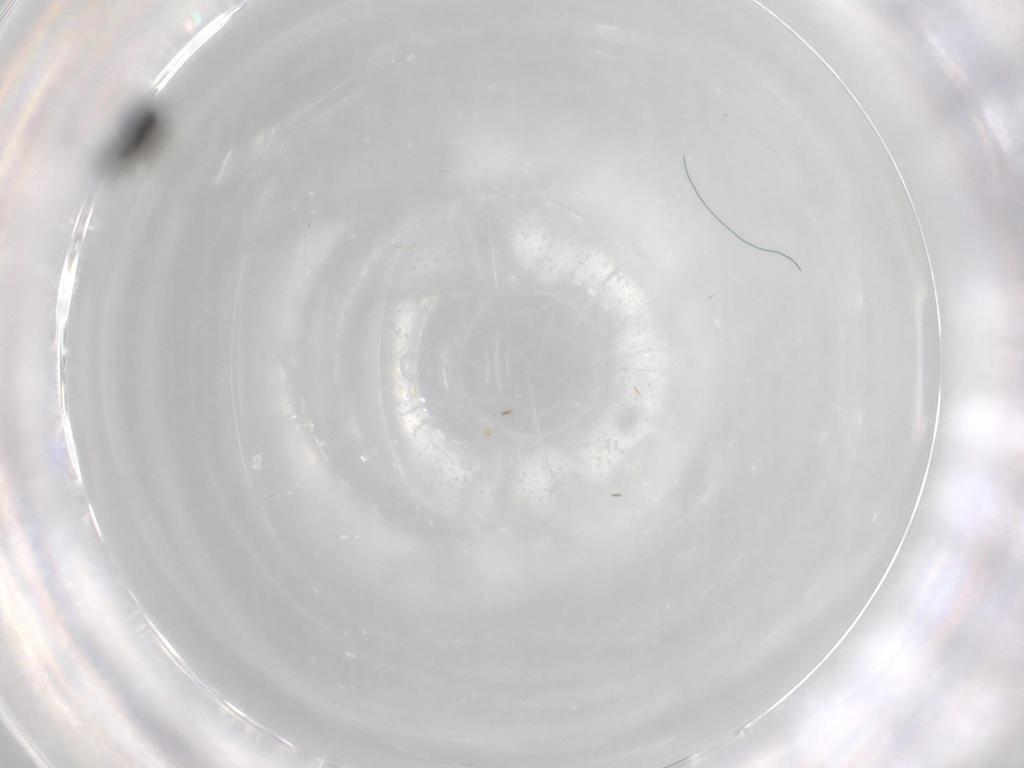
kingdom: Animalia
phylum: Arthropoda
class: Insecta
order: Hymenoptera
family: Scelionidae
